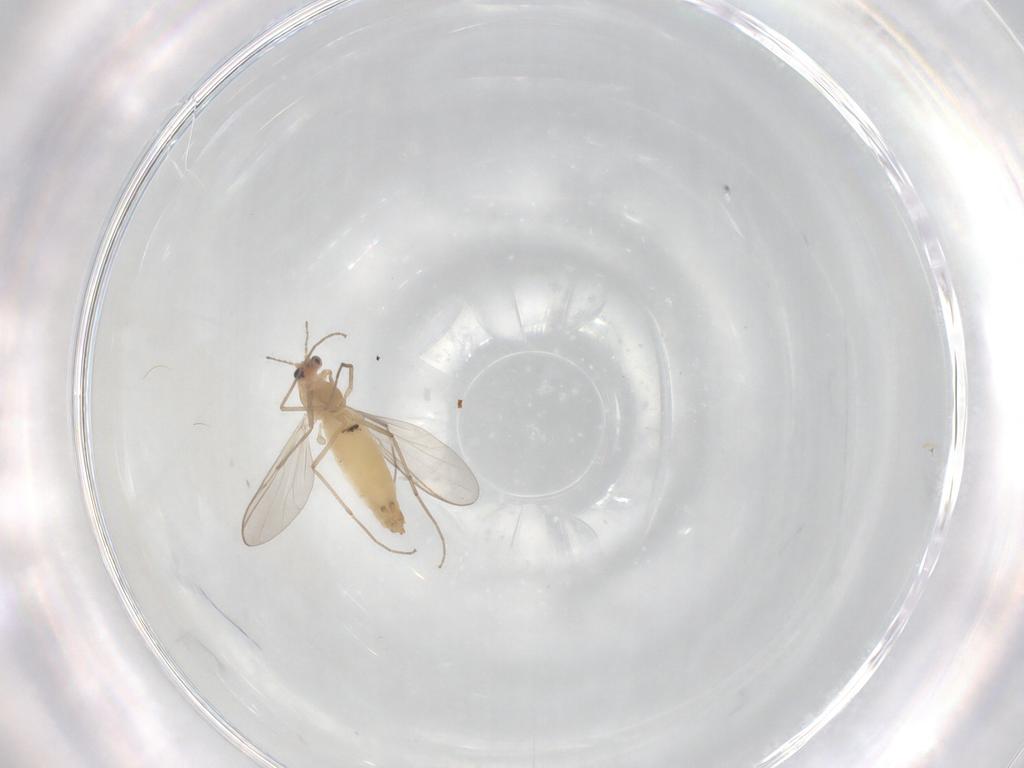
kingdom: Animalia
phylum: Arthropoda
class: Insecta
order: Diptera
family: Chironomidae
